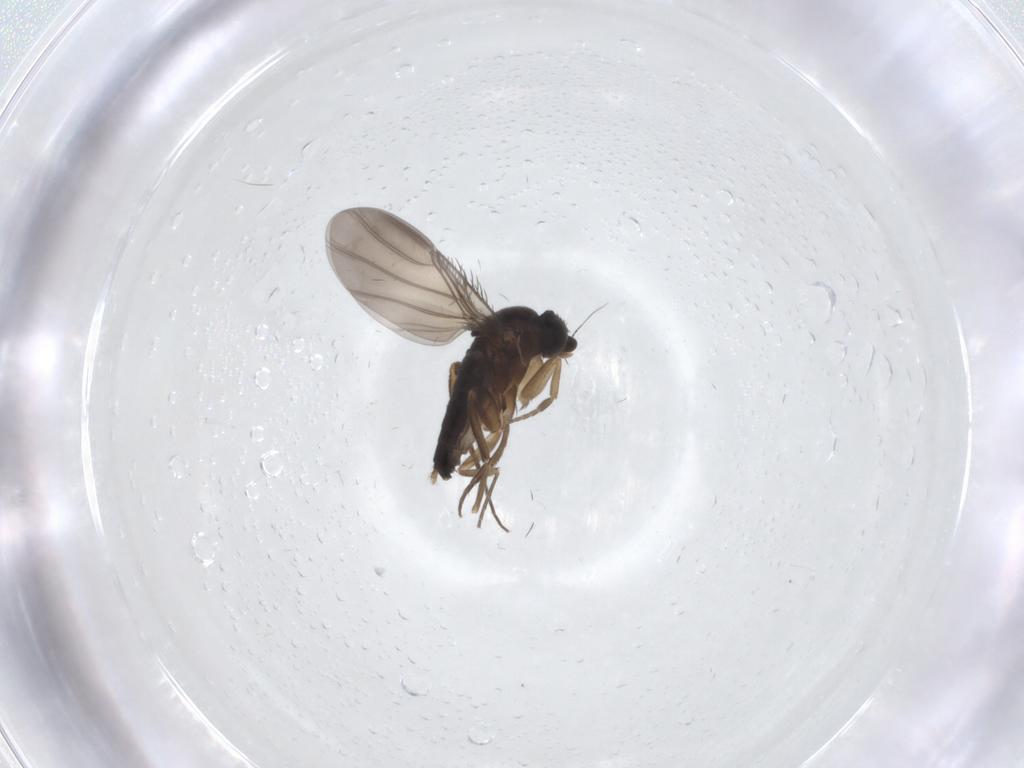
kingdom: Animalia
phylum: Arthropoda
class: Insecta
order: Diptera
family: Phoridae
